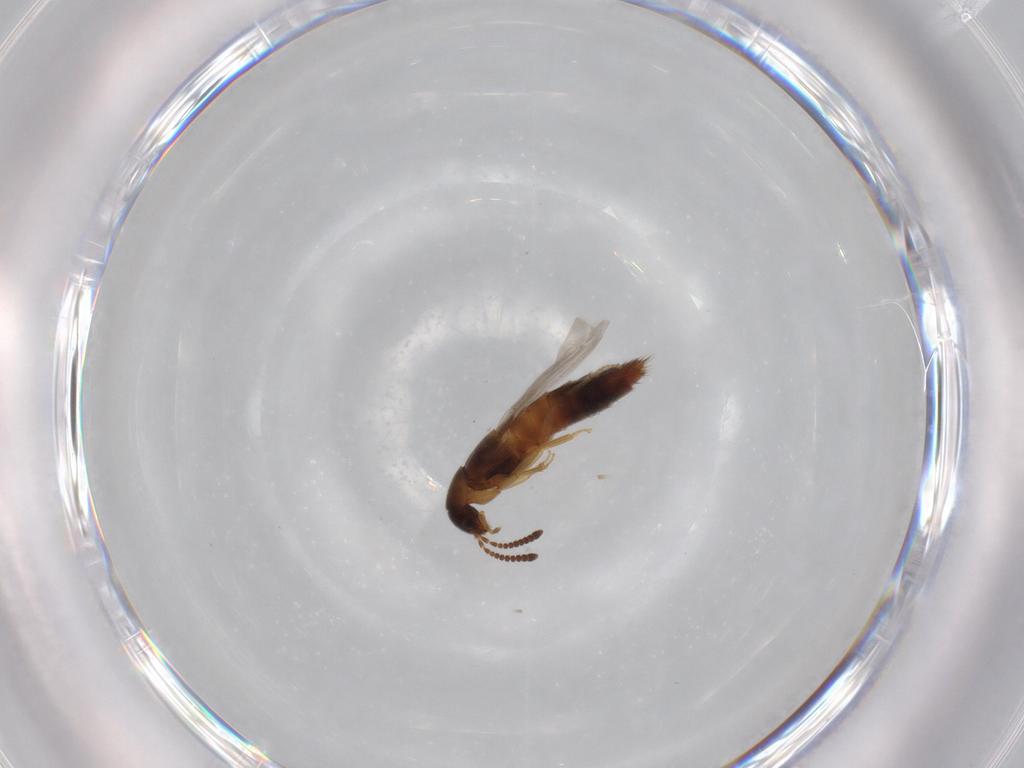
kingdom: Animalia
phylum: Arthropoda
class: Insecta
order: Coleoptera
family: Staphylinidae
